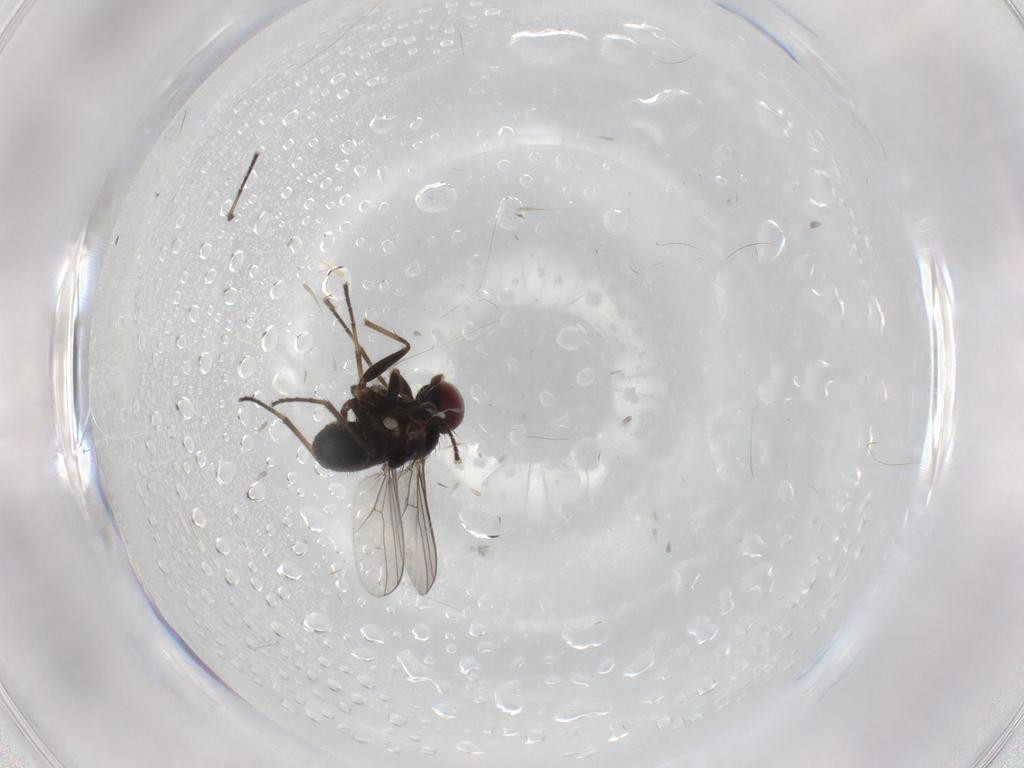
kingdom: Animalia
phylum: Arthropoda
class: Insecta
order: Diptera
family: Dolichopodidae
